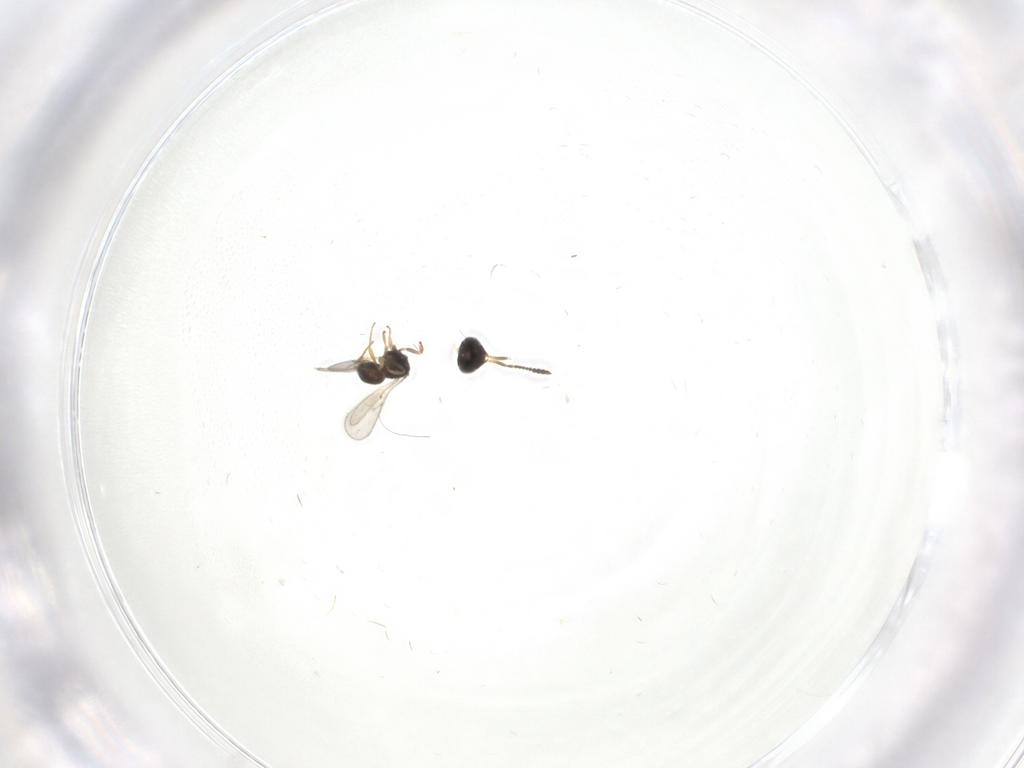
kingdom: Animalia
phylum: Arthropoda
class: Insecta
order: Hymenoptera
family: Scelionidae
